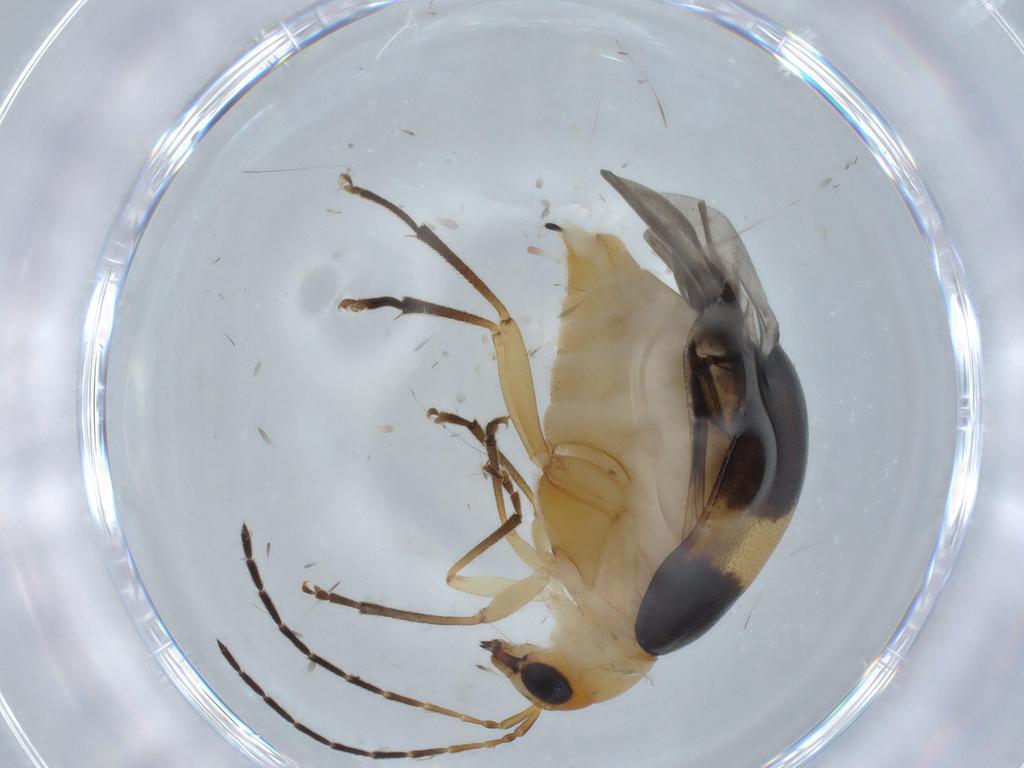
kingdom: Animalia
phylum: Arthropoda
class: Insecta
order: Coleoptera
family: Chrysomelidae
